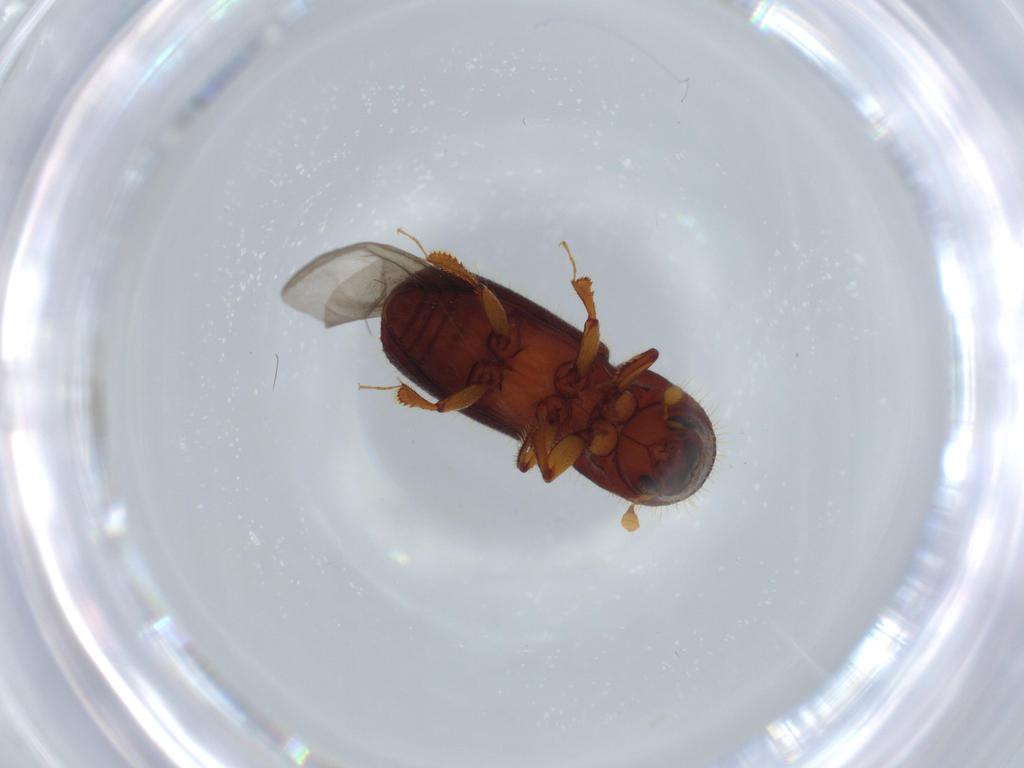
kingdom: Animalia
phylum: Arthropoda
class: Insecta
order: Coleoptera
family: Curculionidae
